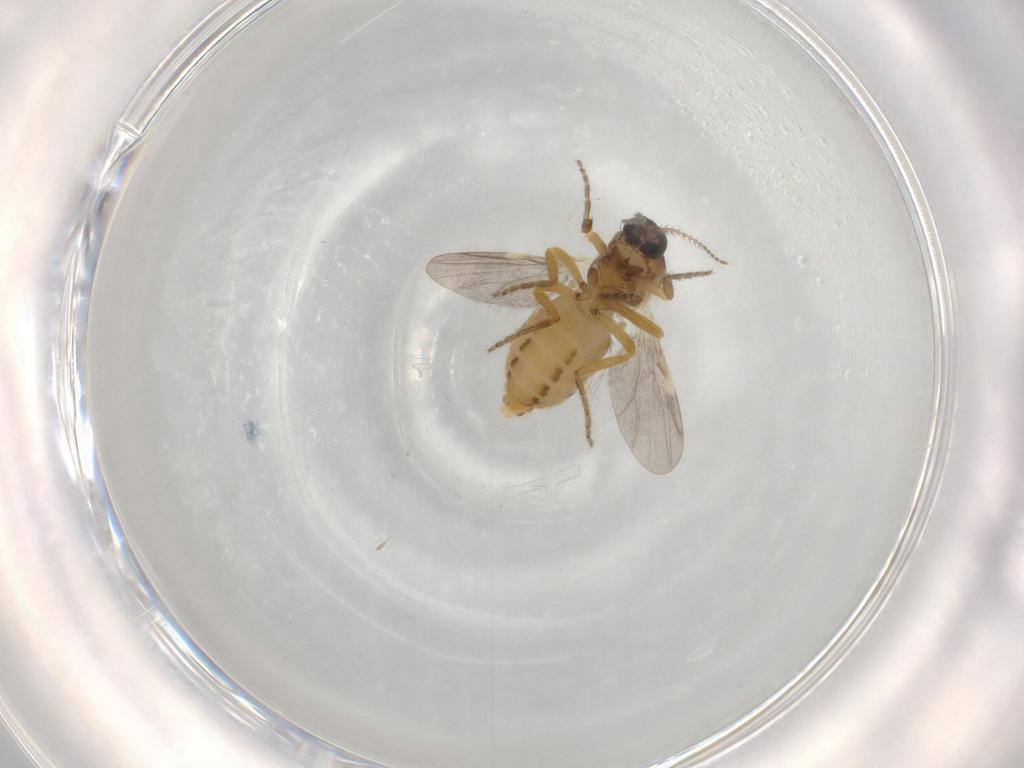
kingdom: Animalia
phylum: Arthropoda
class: Insecta
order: Diptera
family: Ceratopogonidae
